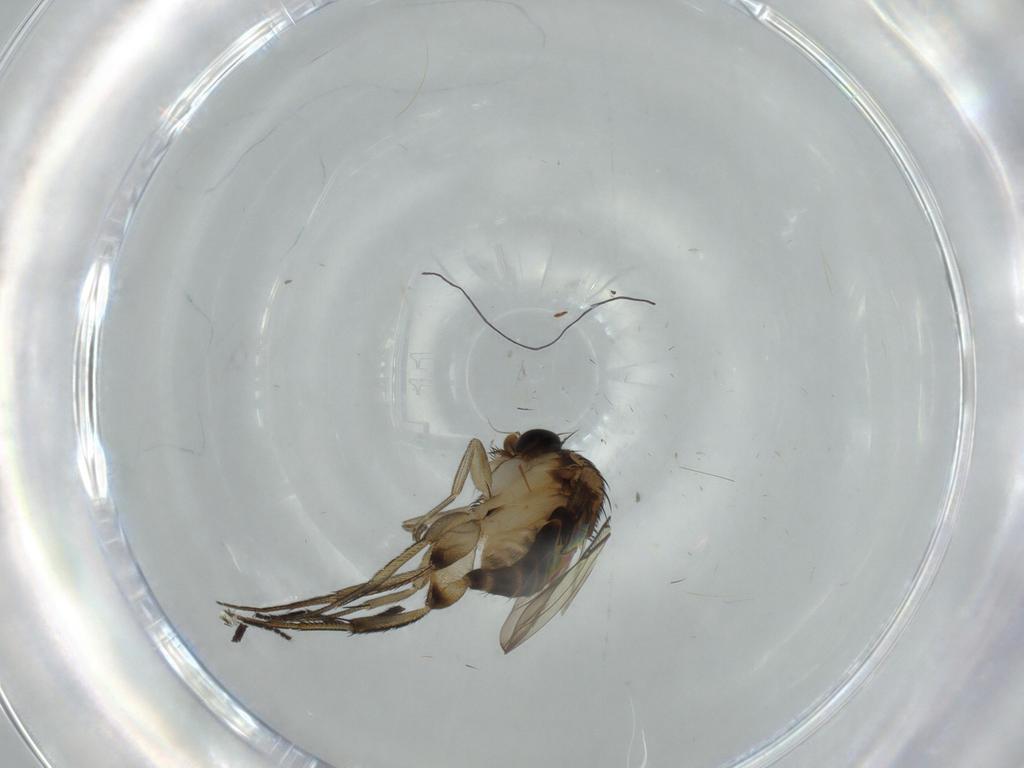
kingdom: Animalia
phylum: Arthropoda
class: Insecta
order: Diptera
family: Phoridae
